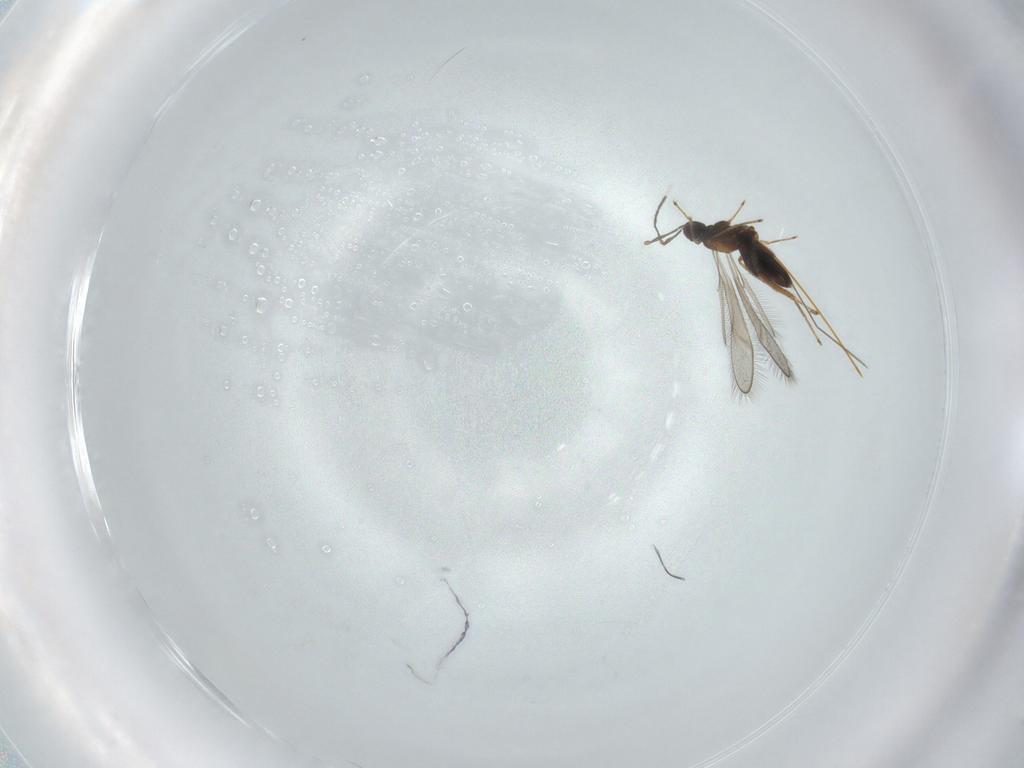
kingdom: Animalia
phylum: Arthropoda
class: Insecta
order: Hymenoptera
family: Mymaridae
